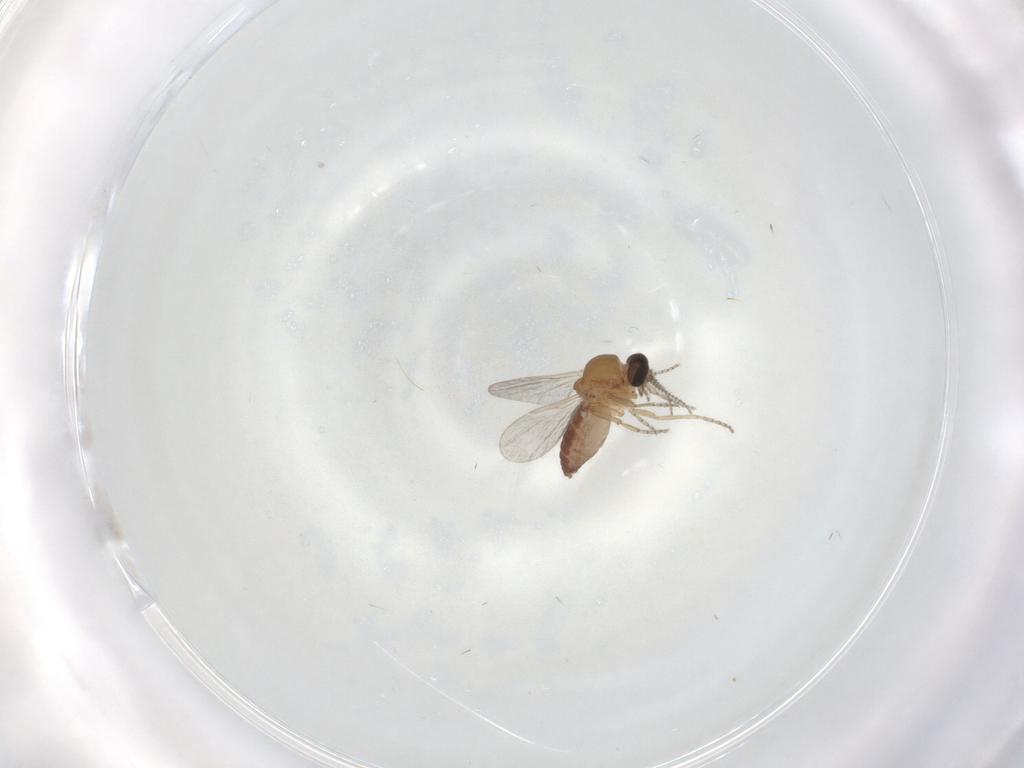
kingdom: Animalia
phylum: Arthropoda
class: Insecta
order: Diptera
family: Ceratopogonidae
